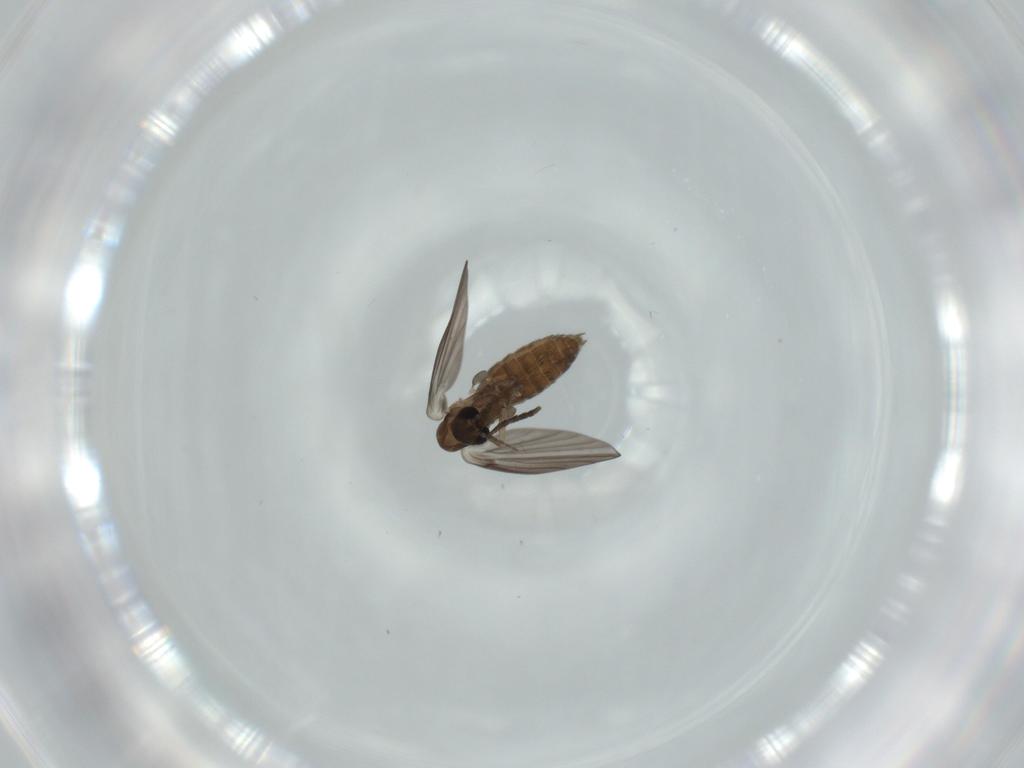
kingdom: Animalia
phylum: Arthropoda
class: Insecta
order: Diptera
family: Psychodidae
